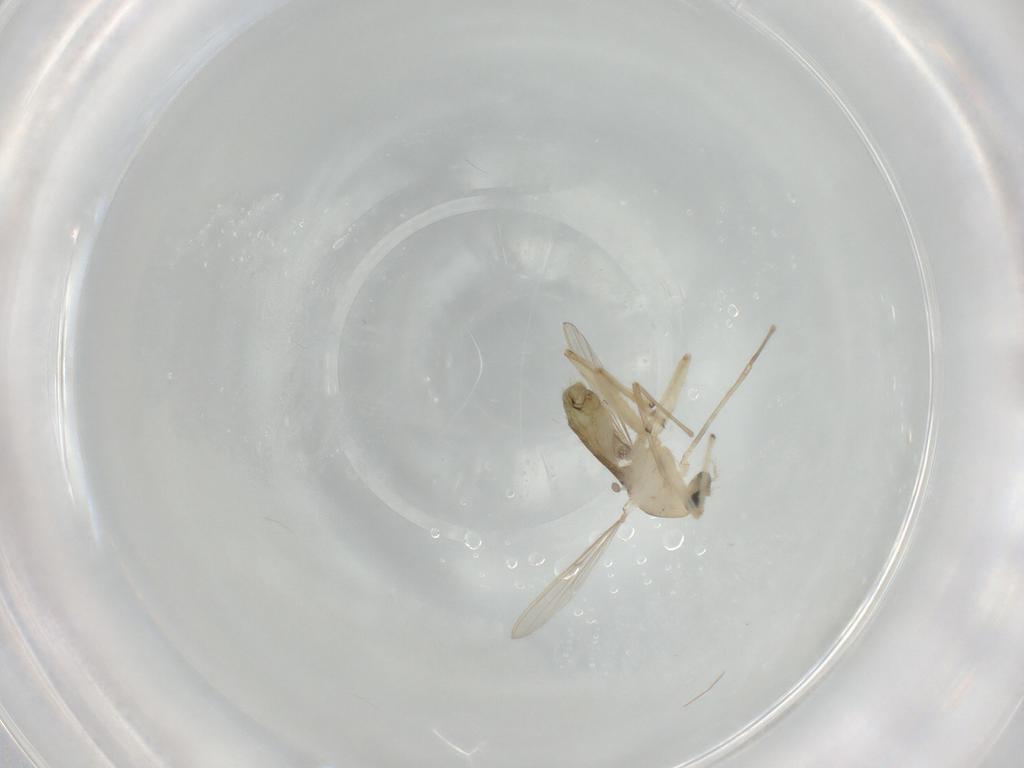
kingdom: Animalia
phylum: Arthropoda
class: Insecta
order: Diptera
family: Chironomidae
